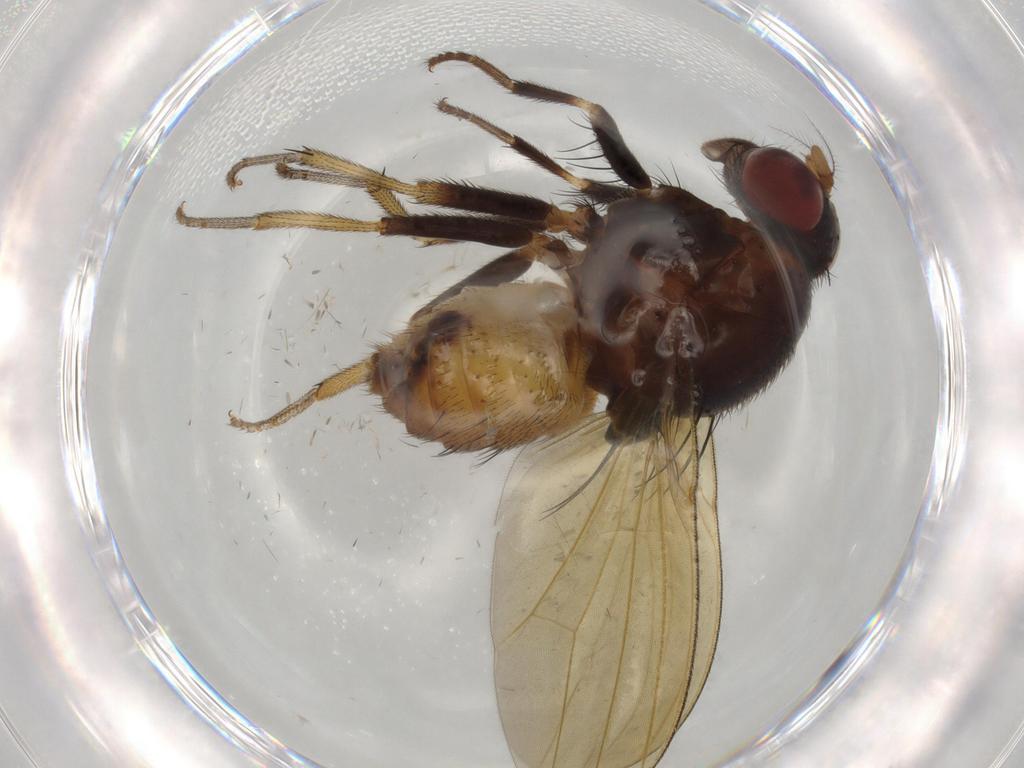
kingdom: Animalia
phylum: Arthropoda
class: Insecta
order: Diptera
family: Lauxaniidae
